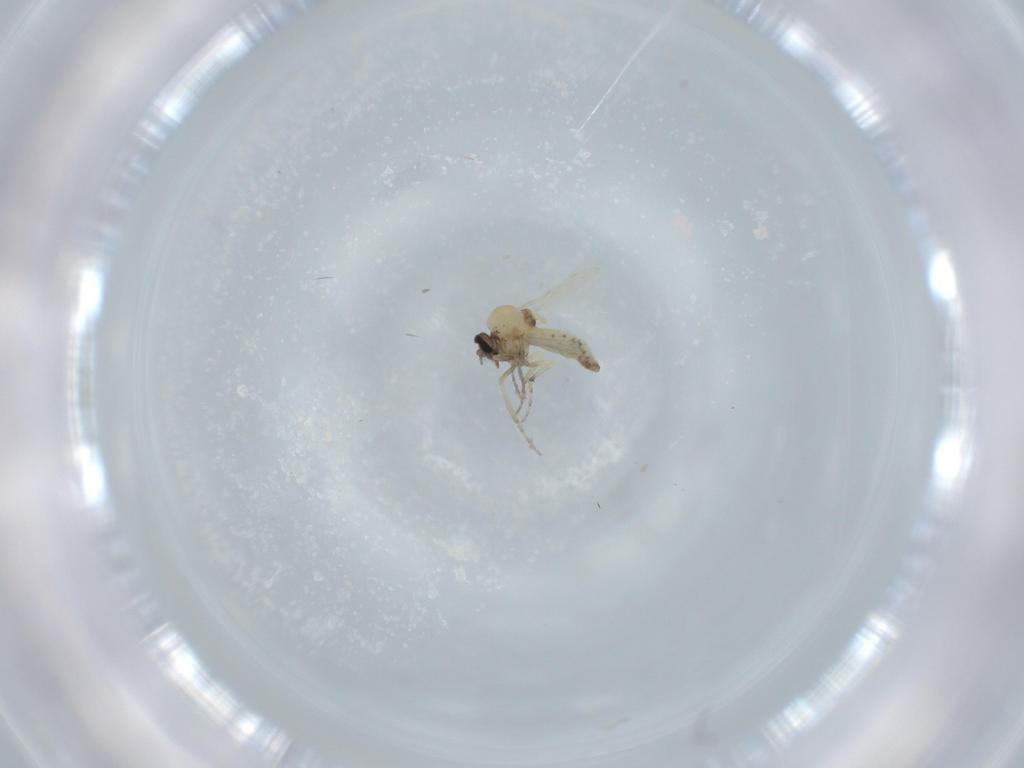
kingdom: Animalia
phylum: Arthropoda
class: Insecta
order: Diptera
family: Ceratopogonidae
